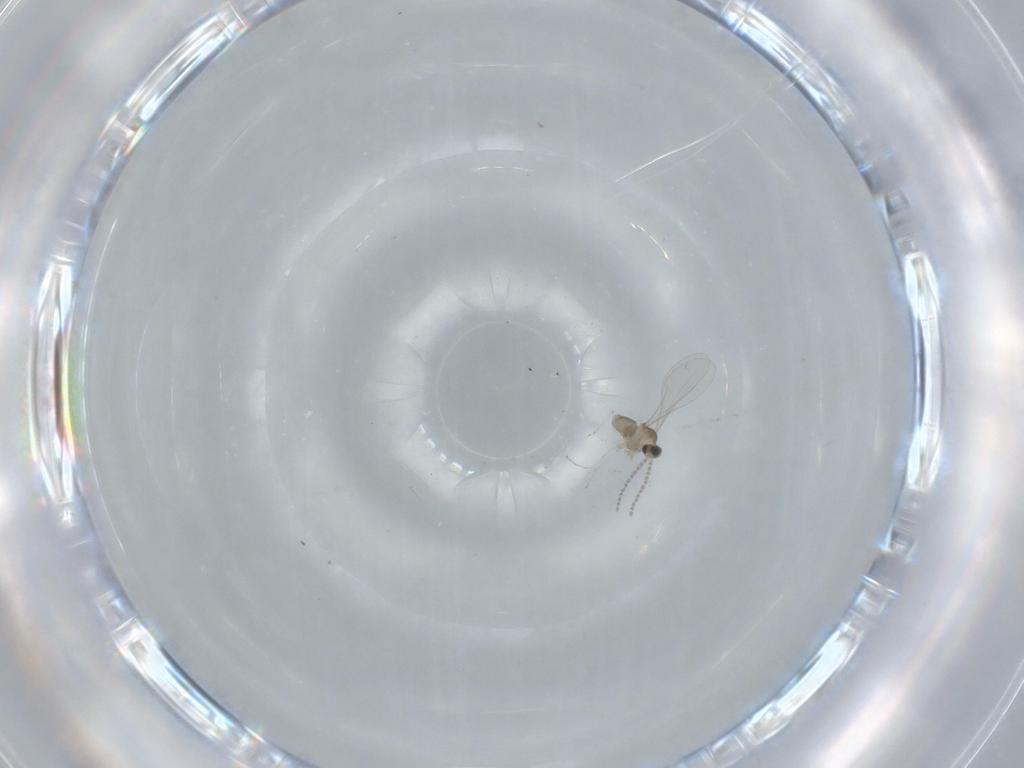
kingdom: Animalia
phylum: Arthropoda
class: Insecta
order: Diptera
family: Cecidomyiidae
